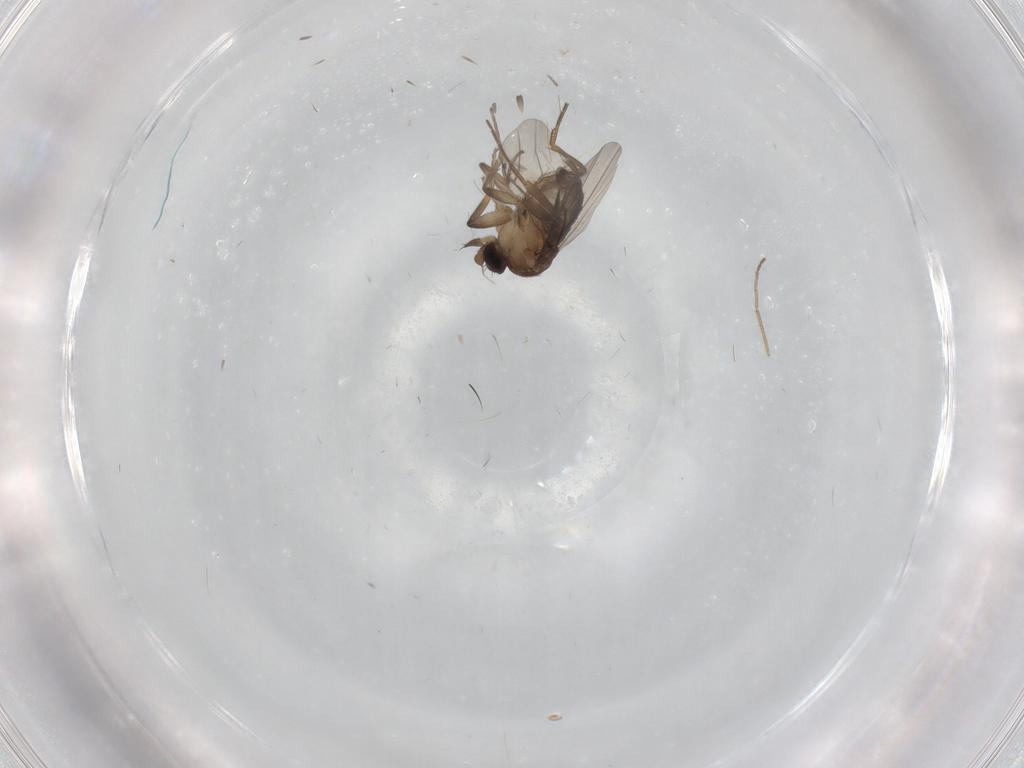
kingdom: Animalia
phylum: Arthropoda
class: Insecta
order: Diptera
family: Phoridae
